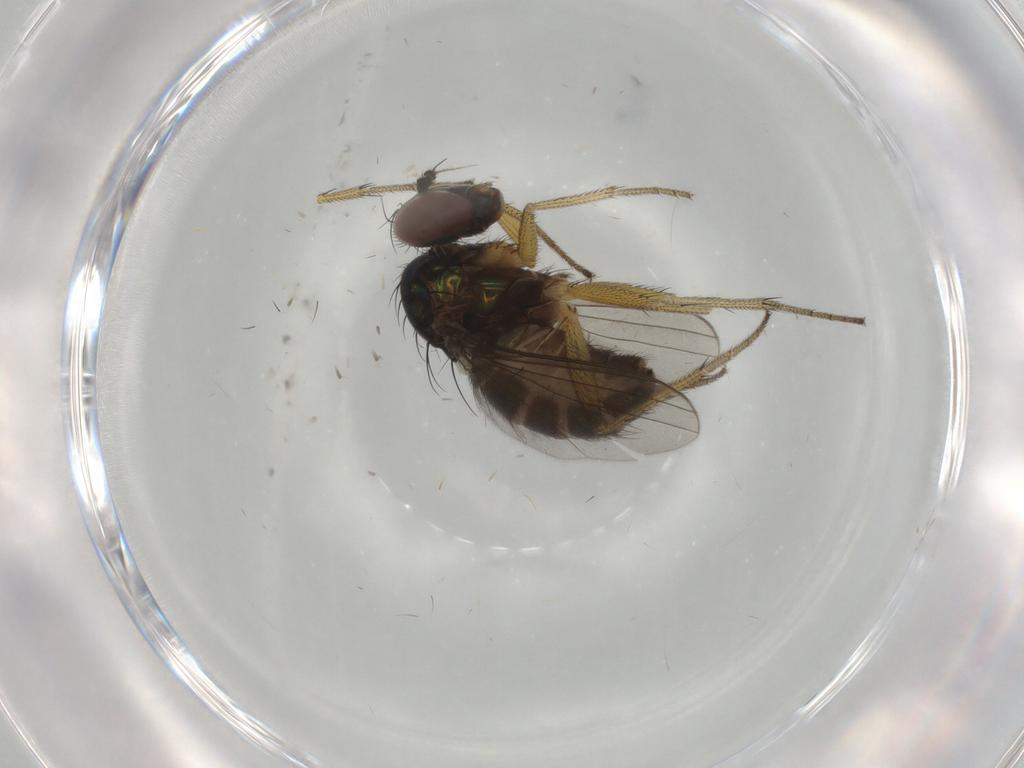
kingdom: Animalia
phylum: Arthropoda
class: Insecta
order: Diptera
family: Dolichopodidae
